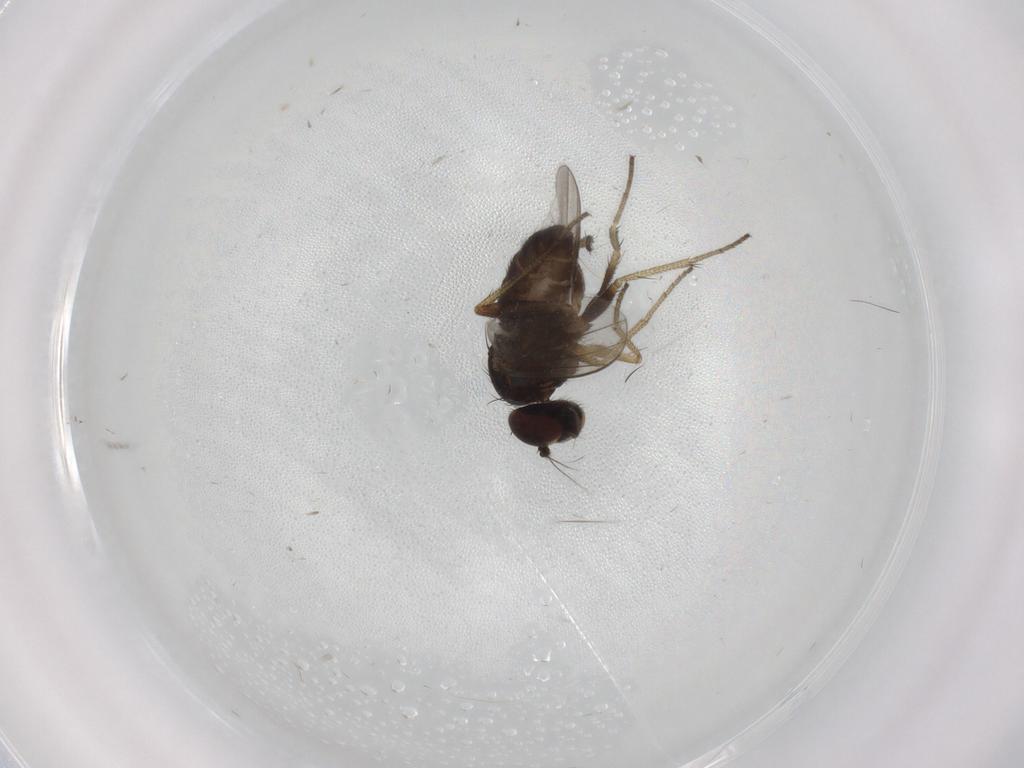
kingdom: Animalia
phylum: Arthropoda
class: Insecta
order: Diptera
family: Dolichopodidae
